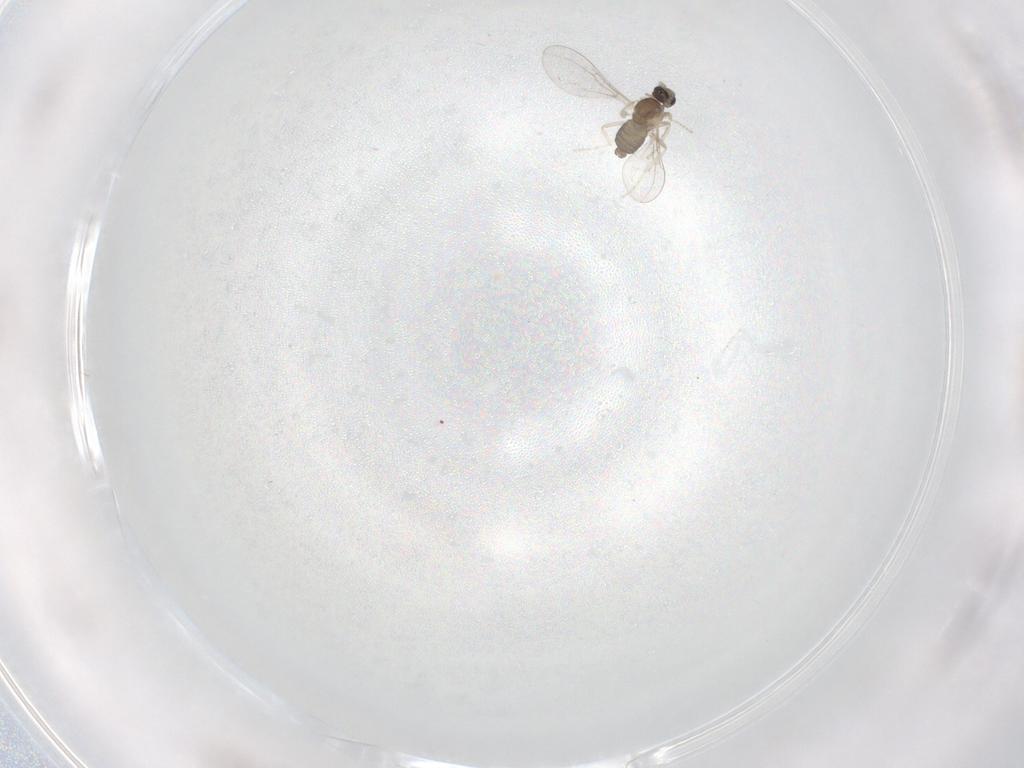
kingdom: Animalia
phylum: Arthropoda
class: Insecta
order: Diptera
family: Cecidomyiidae
